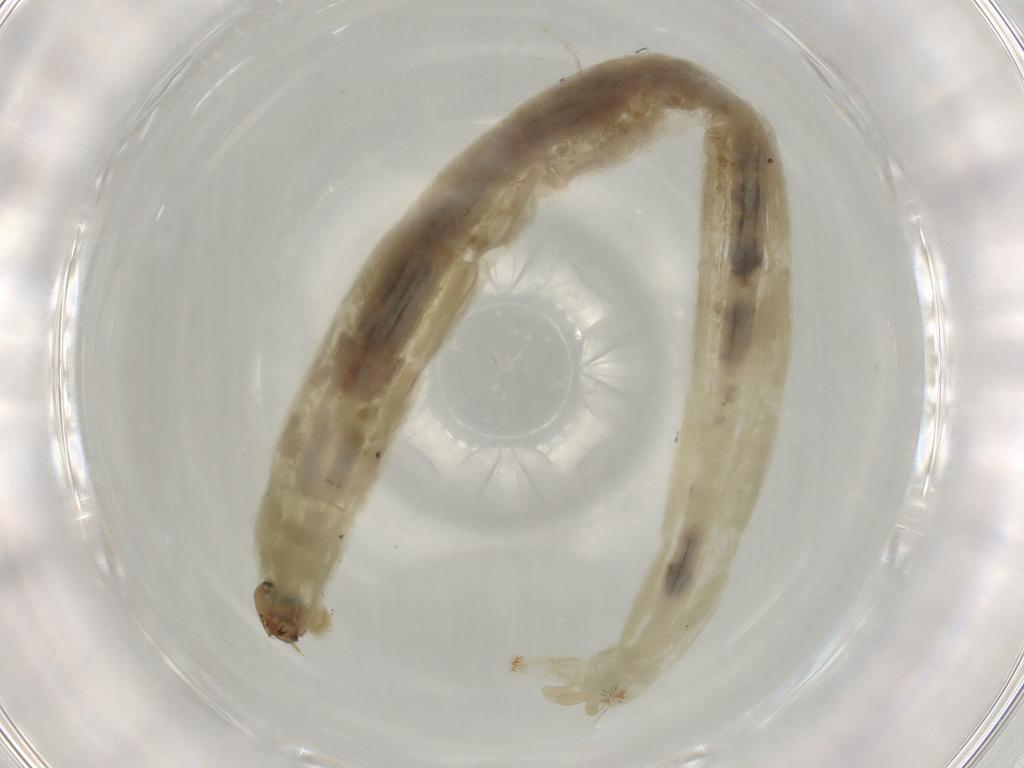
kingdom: Animalia
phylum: Arthropoda
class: Insecta
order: Diptera
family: Chironomidae
